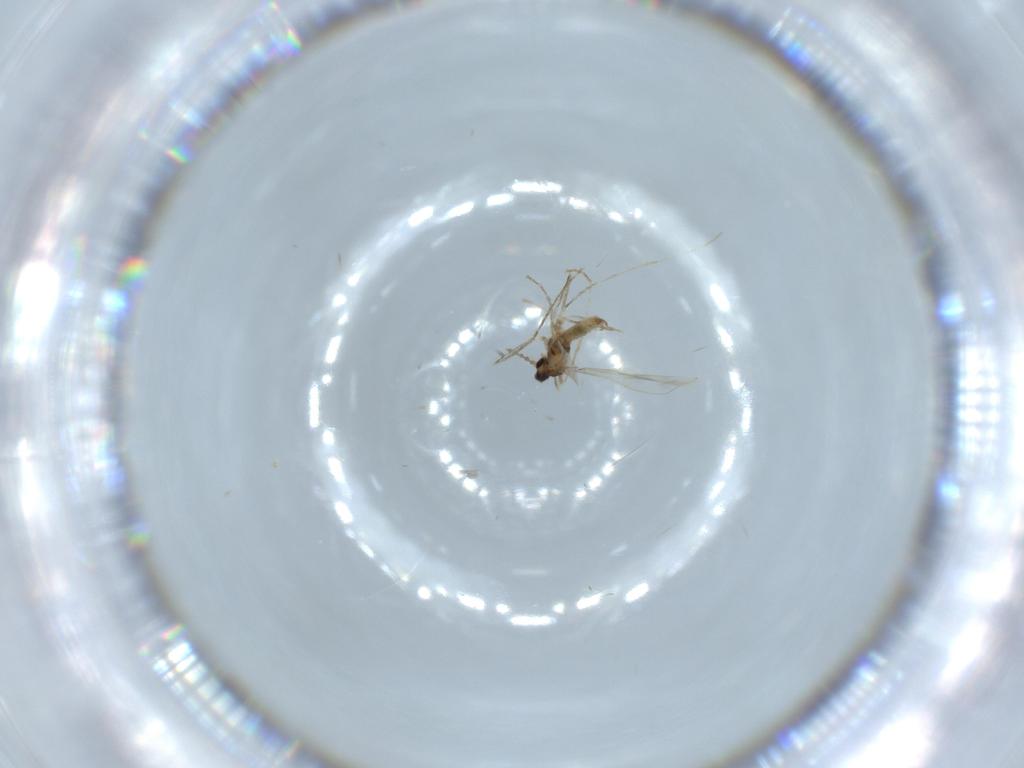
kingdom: Animalia
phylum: Arthropoda
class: Insecta
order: Diptera
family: Cecidomyiidae
